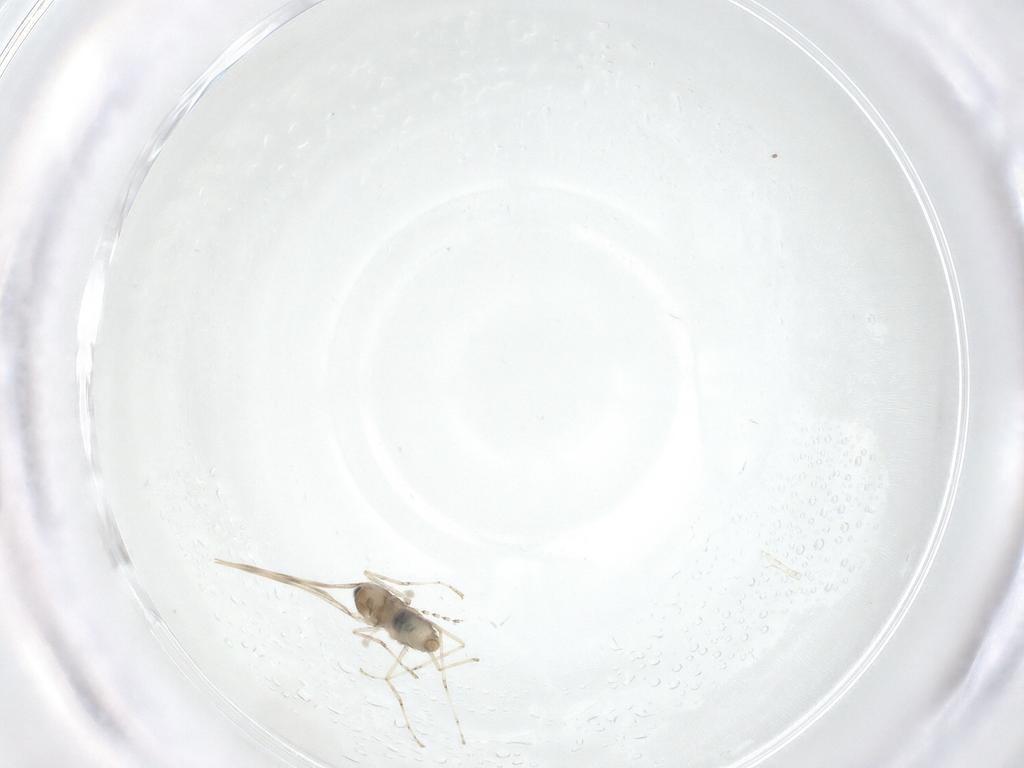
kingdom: Animalia
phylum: Arthropoda
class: Insecta
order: Diptera
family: Cecidomyiidae
